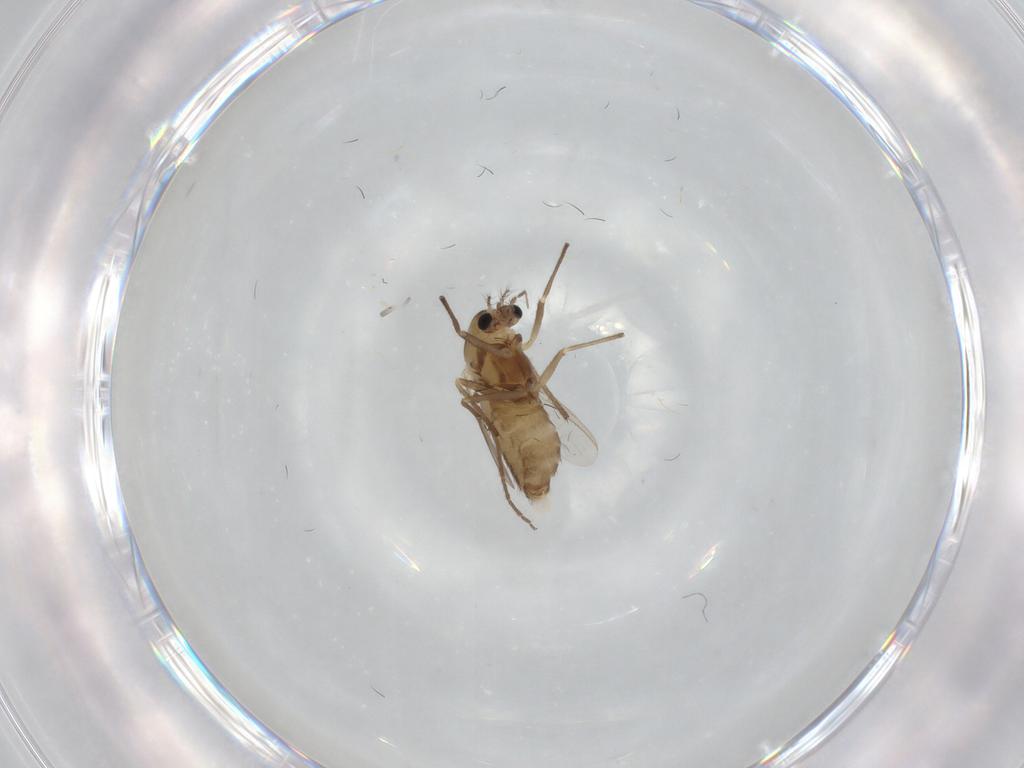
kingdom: Animalia
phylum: Arthropoda
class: Insecta
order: Diptera
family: Chironomidae
